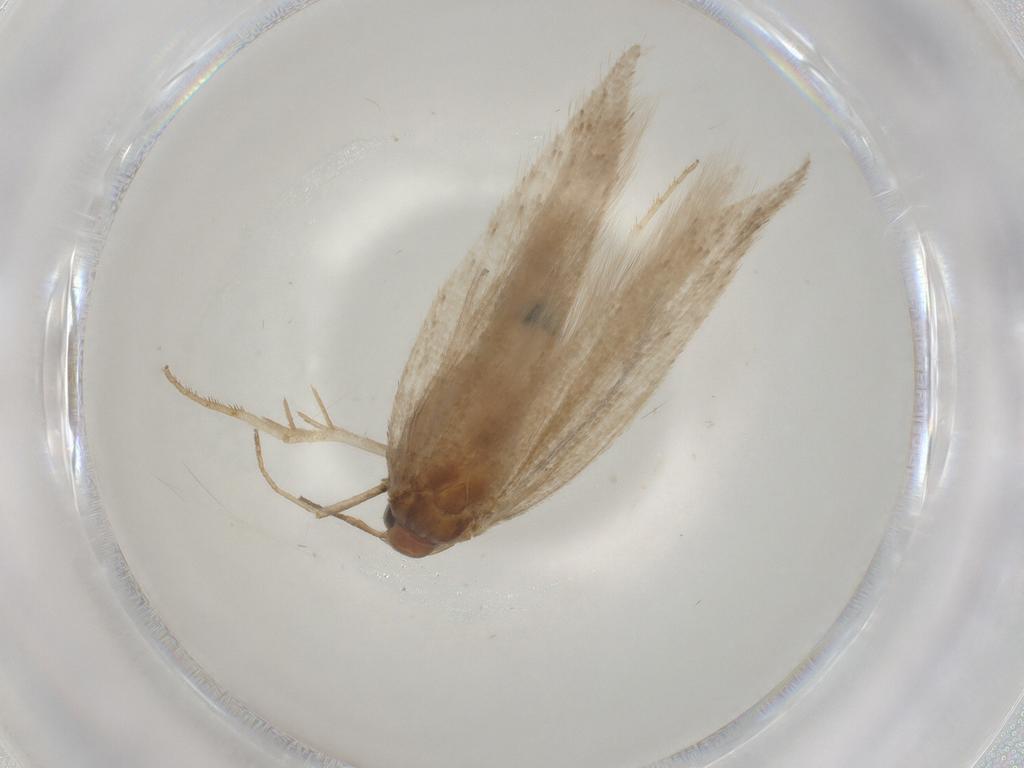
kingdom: Animalia
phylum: Arthropoda
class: Insecta
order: Lepidoptera
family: Gelechiidae
